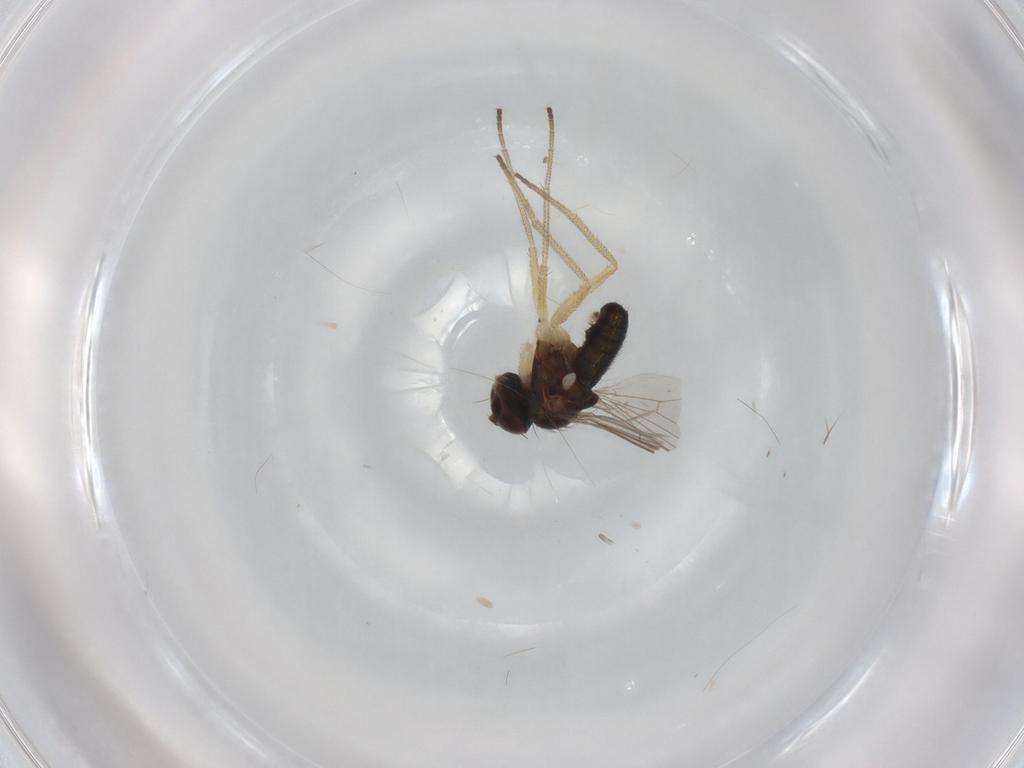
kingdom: Animalia
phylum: Arthropoda
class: Insecta
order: Diptera
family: Dolichopodidae
